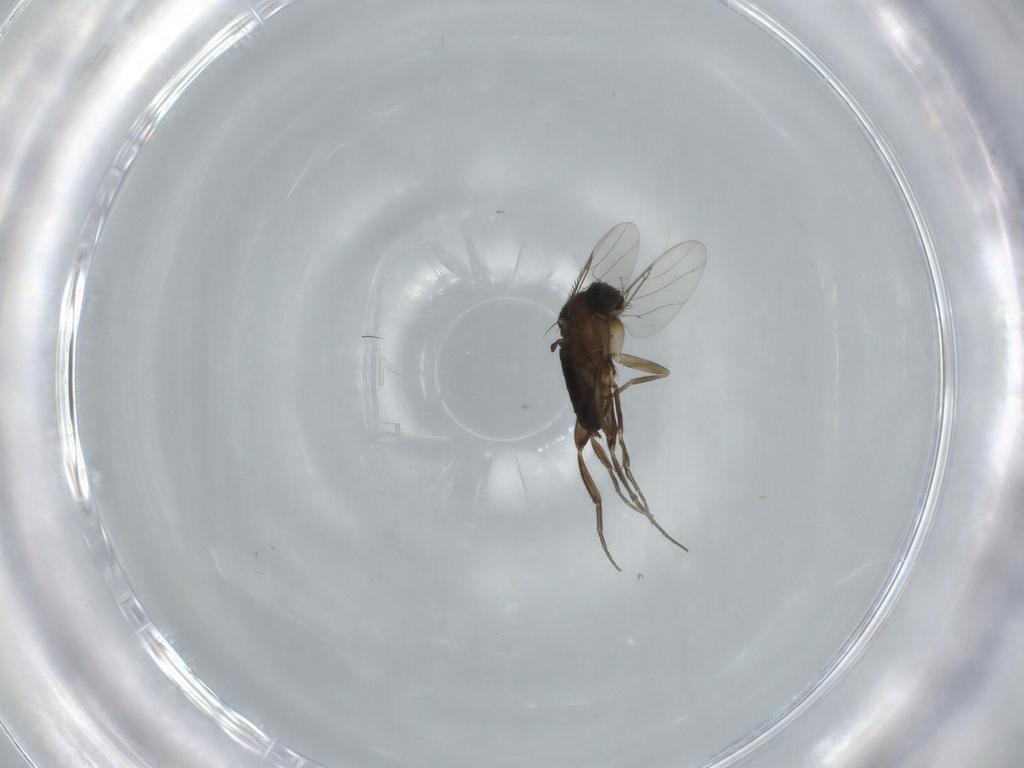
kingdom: Animalia
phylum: Arthropoda
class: Insecta
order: Diptera
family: Phoridae
